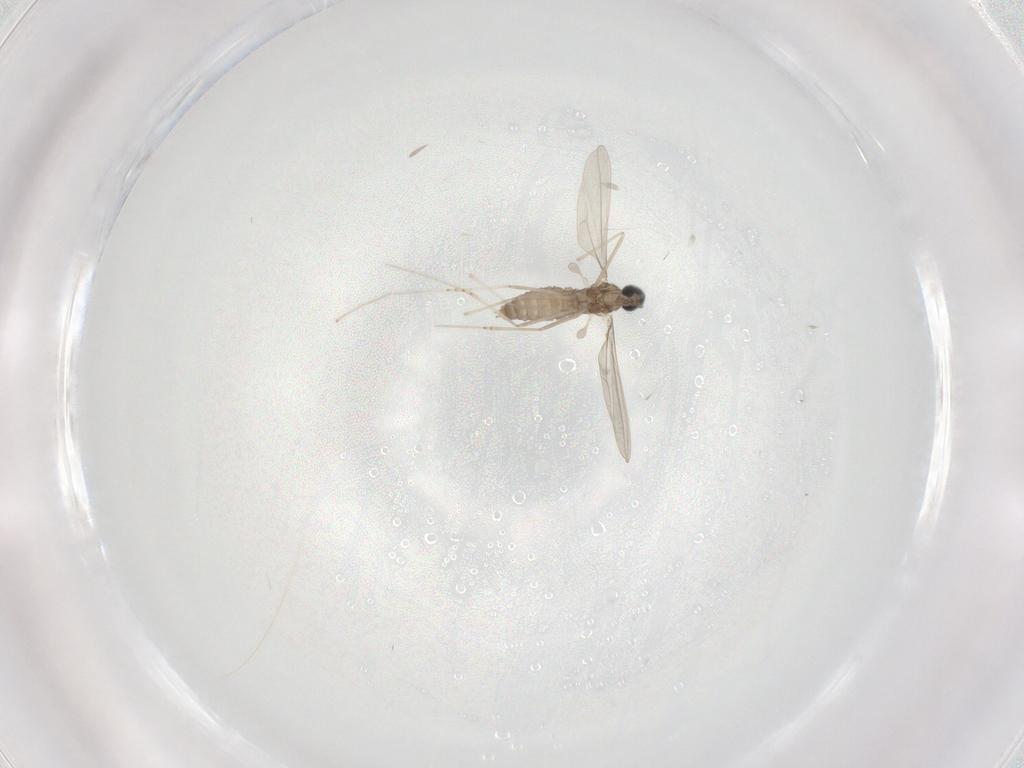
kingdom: Animalia
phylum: Arthropoda
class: Insecta
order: Diptera
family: Cecidomyiidae
